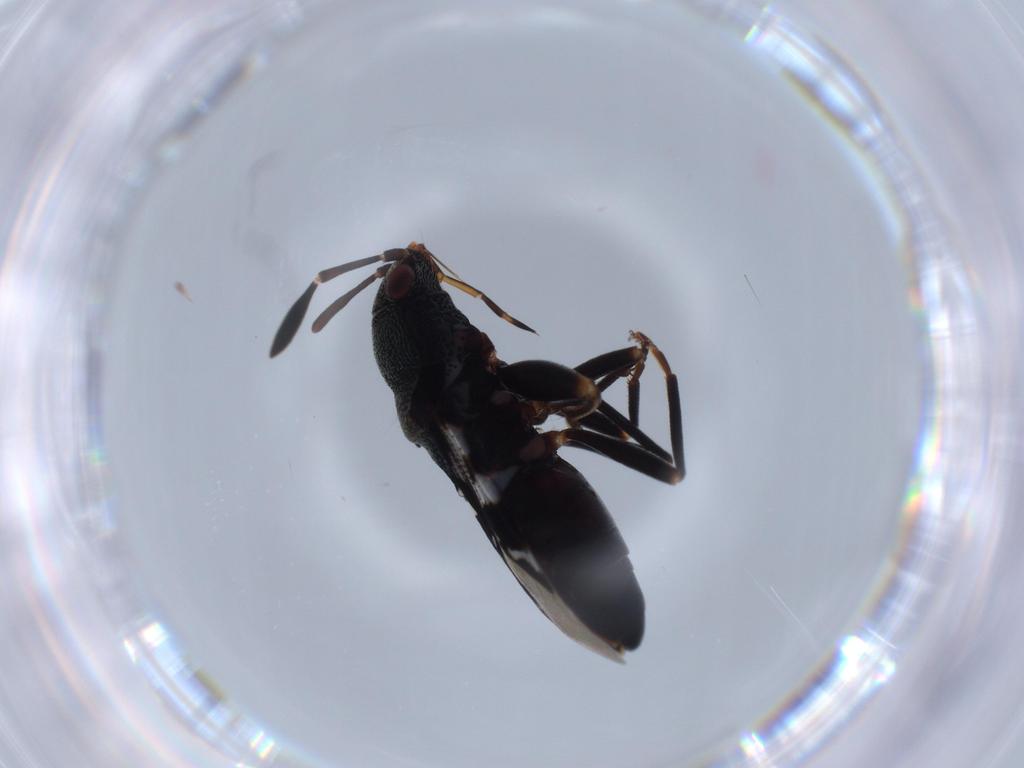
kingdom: Animalia
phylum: Arthropoda
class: Insecta
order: Hemiptera
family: Rhyparochromidae
